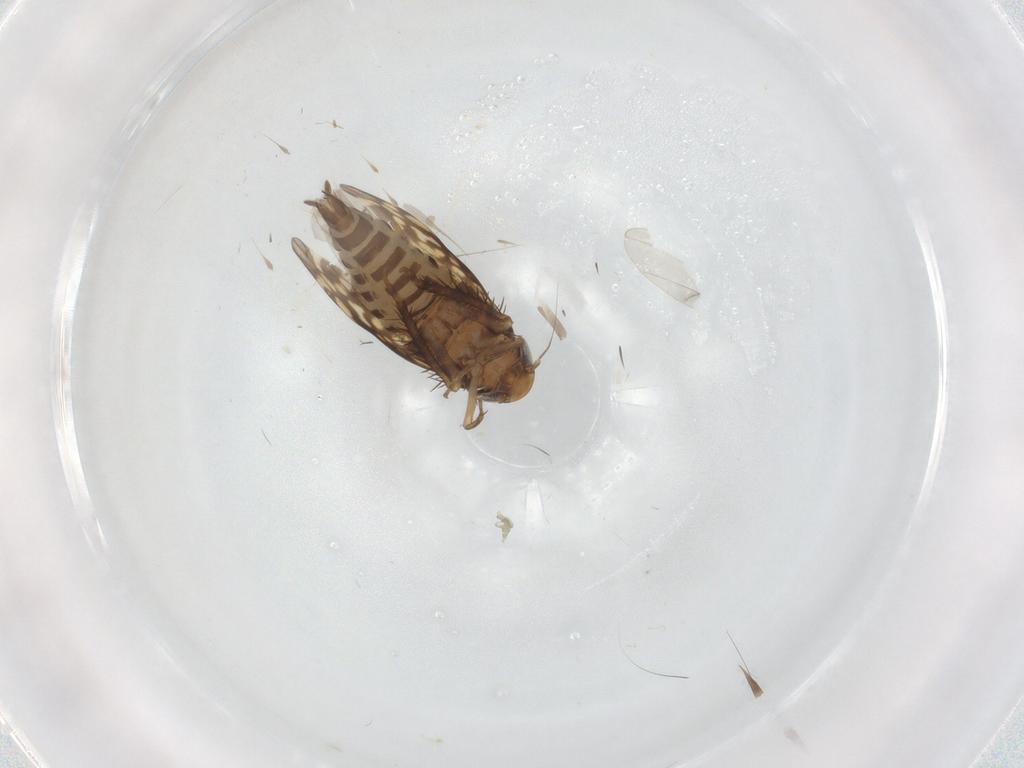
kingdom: Animalia
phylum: Arthropoda
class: Insecta
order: Hemiptera
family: Cicadellidae
